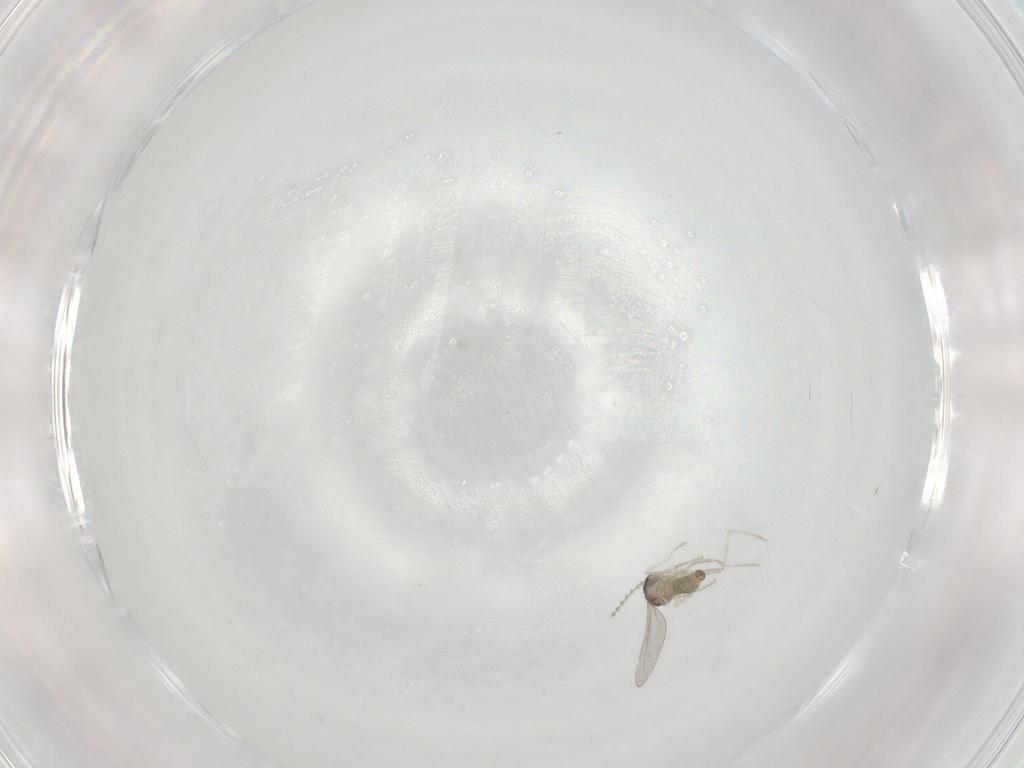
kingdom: Animalia
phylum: Arthropoda
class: Insecta
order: Diptera
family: Cecidomyiidae
